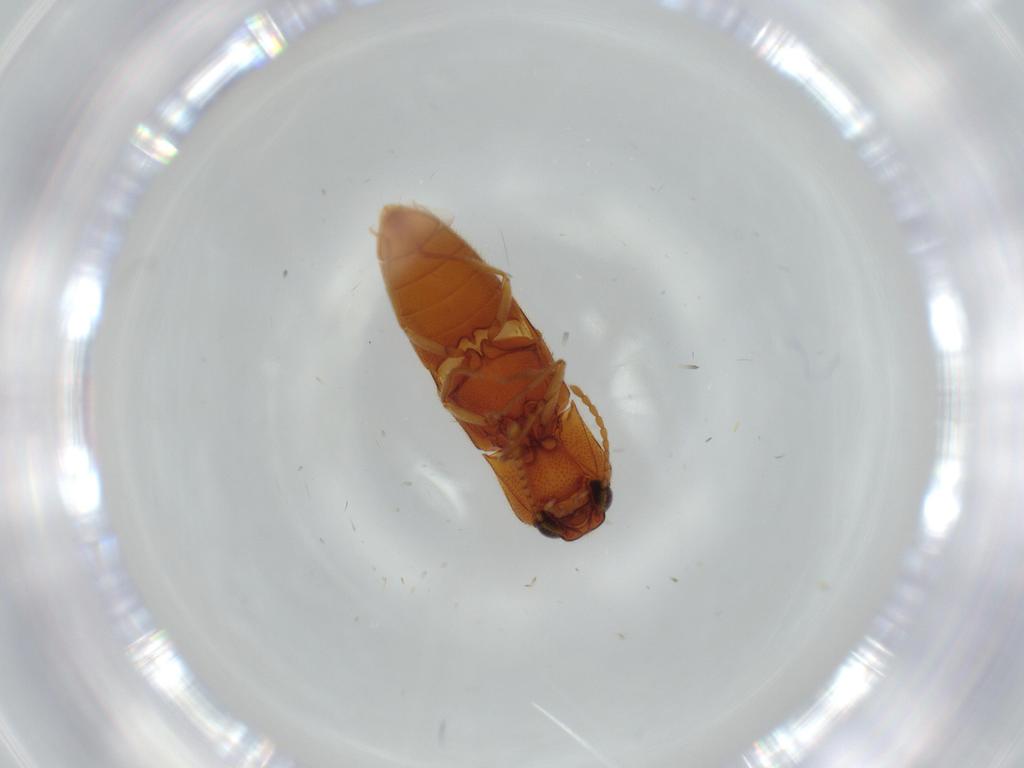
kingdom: Animalia
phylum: Arthropoda
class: Insecta
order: Coleoptera
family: Elateridae
